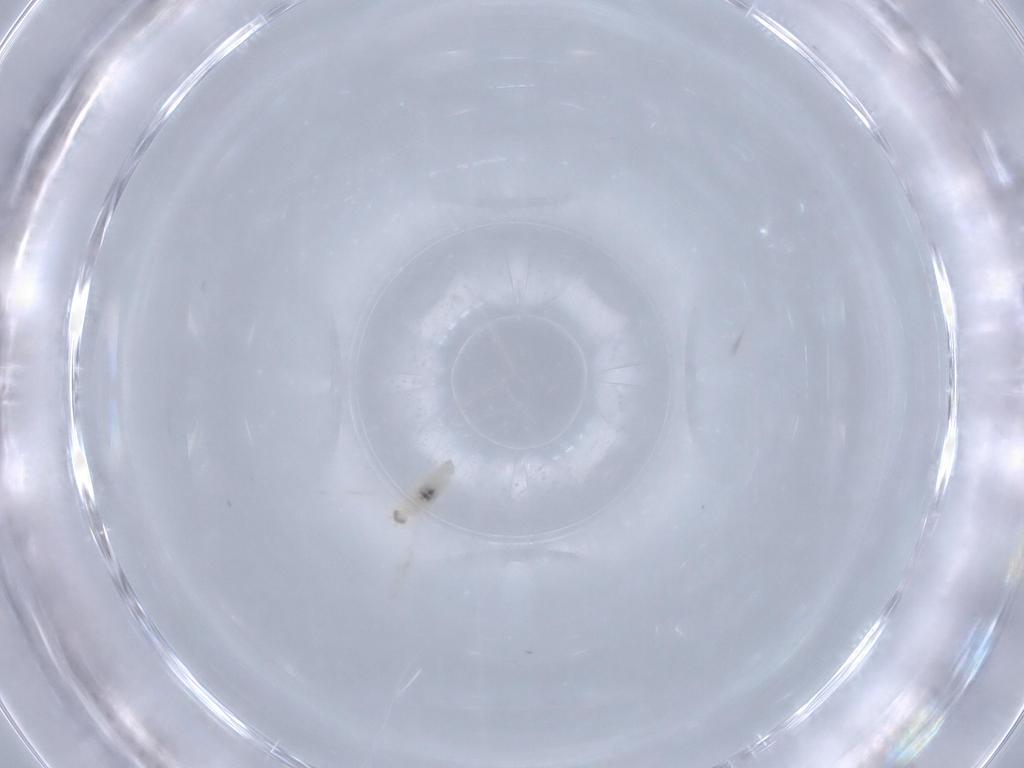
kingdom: Animalia
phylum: Arthropoda
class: Insecta
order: Diptera
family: Cecidomyiidae
